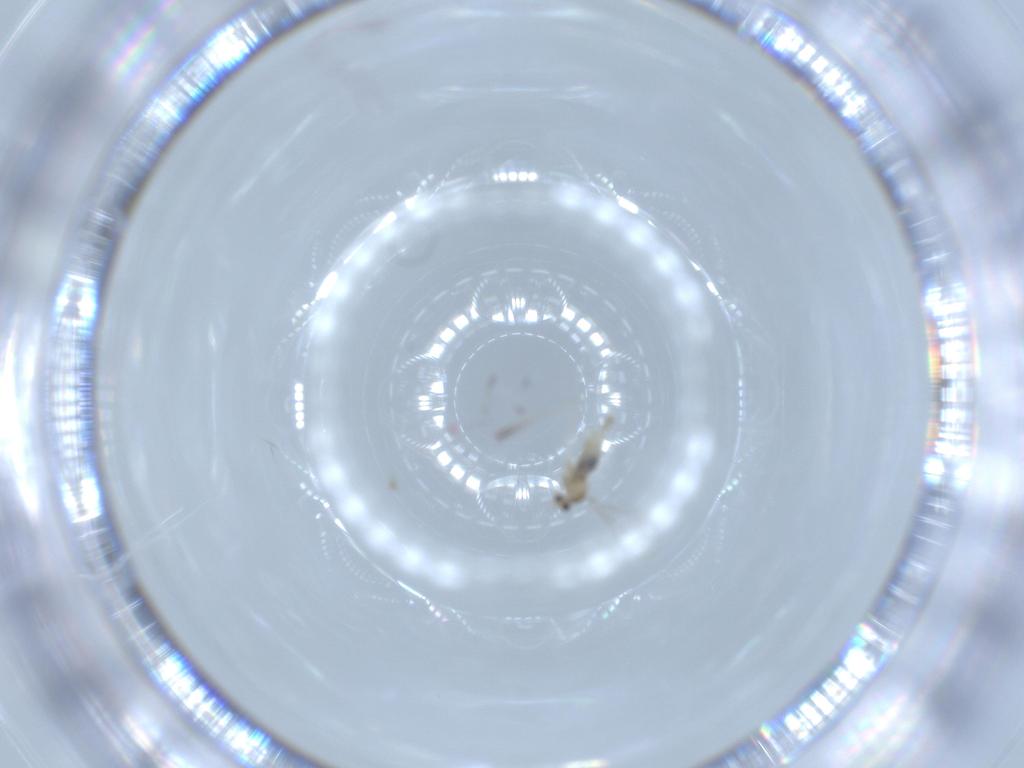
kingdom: Animalia
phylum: Arthropoda
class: Insecta
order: Diptera
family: Cecidomyiidae
